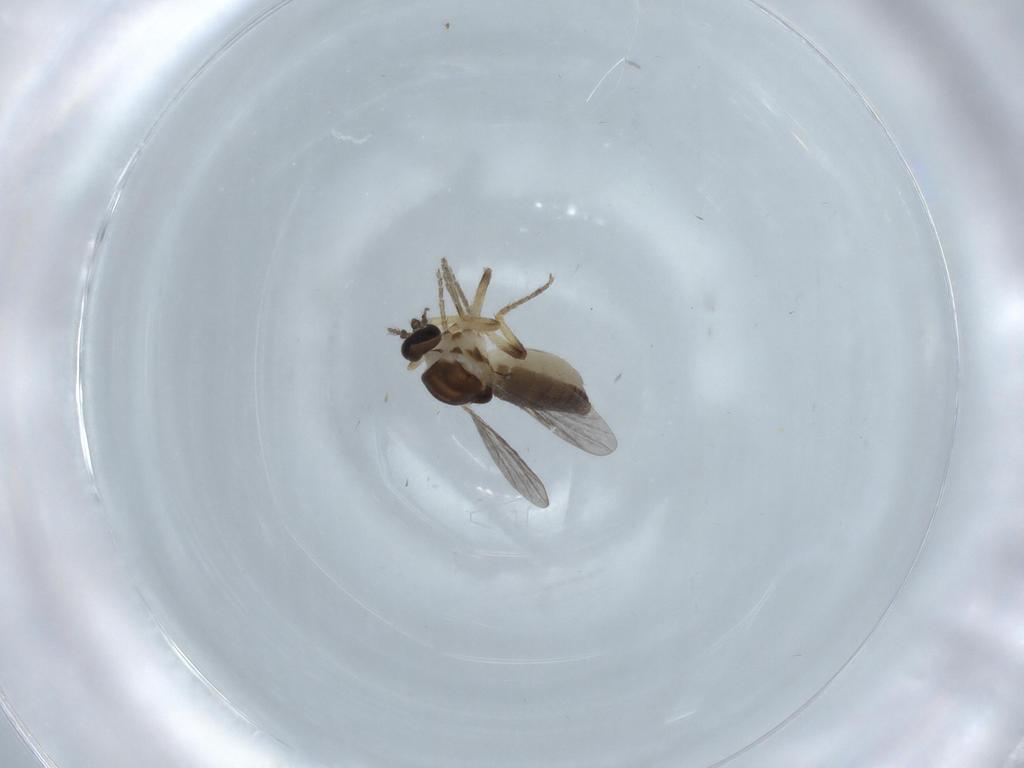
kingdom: Animalia
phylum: Arthropoda
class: Insecta
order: Diptera
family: Ceratopogonidae
